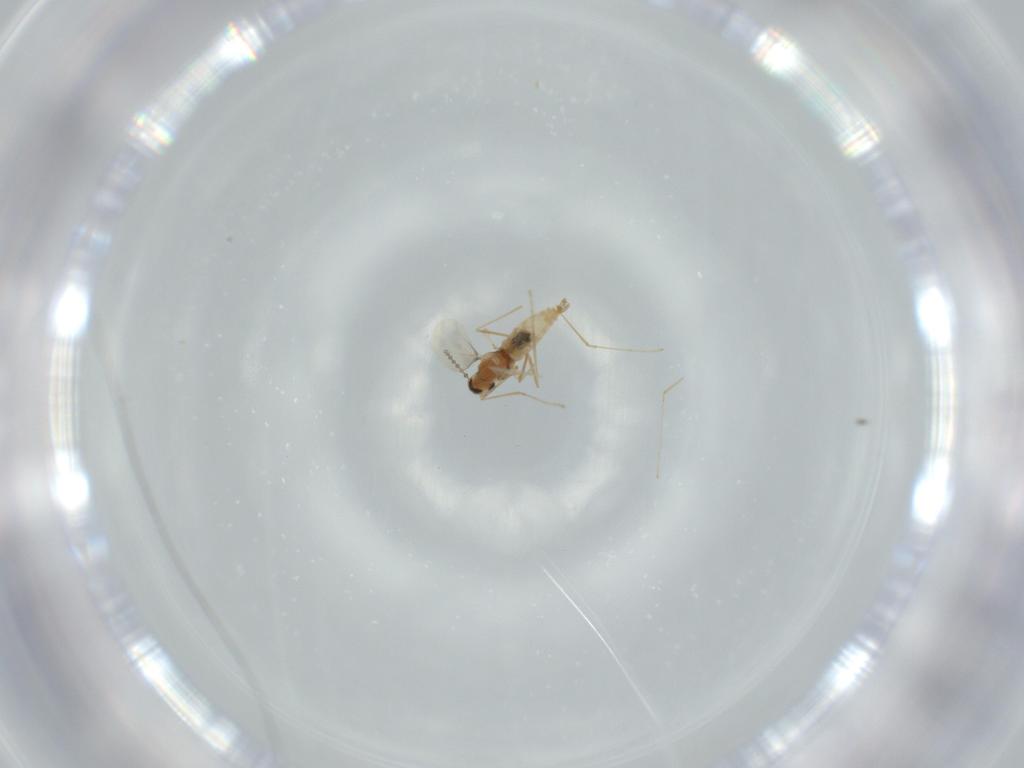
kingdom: Animalia
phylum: Arthropoda
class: Insecta
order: Diptera
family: Cecidomyiidae
